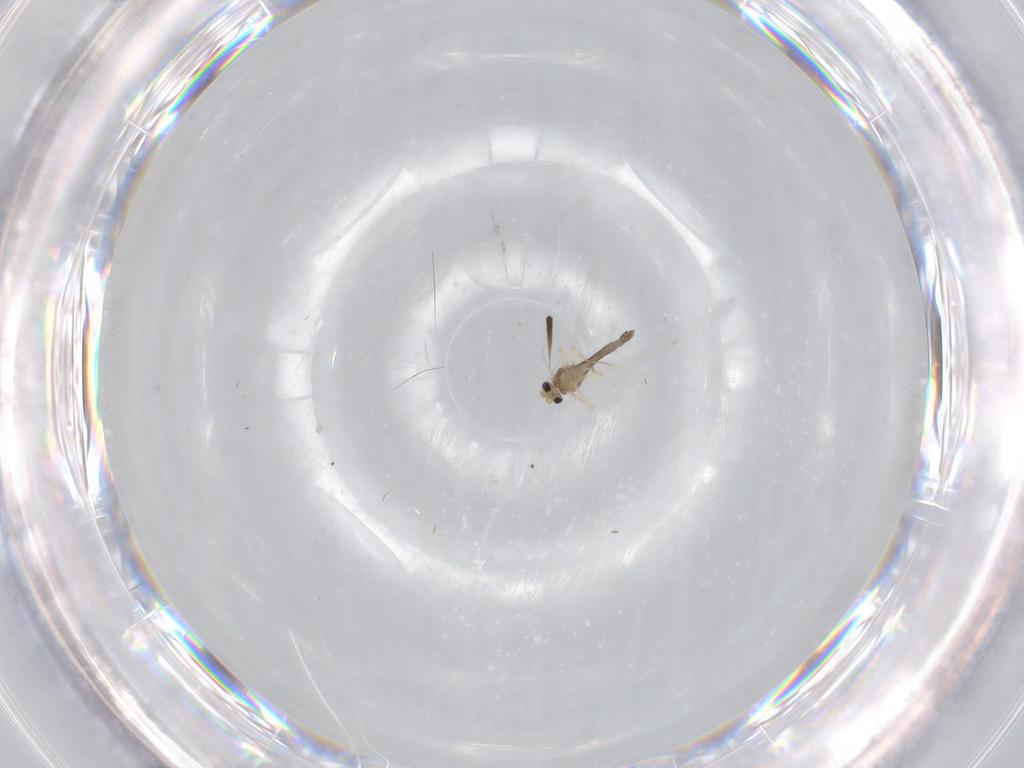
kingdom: Animalia
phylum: Arthropoda
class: Insecta
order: Diptera
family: Chironomidae
